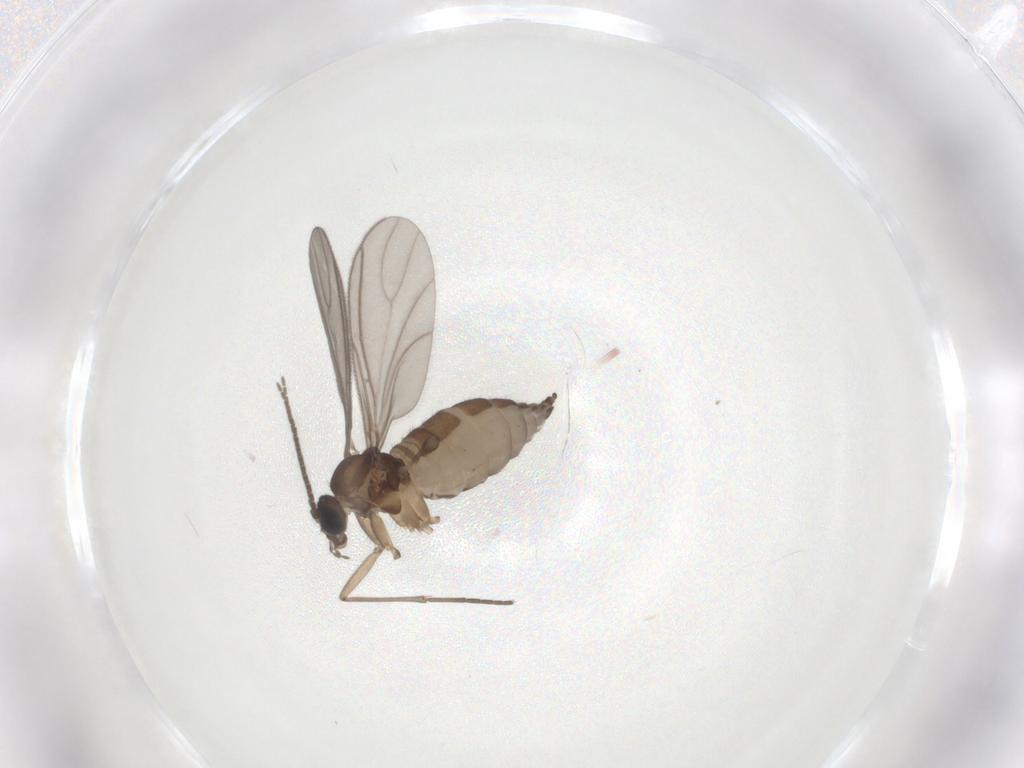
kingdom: Animalia
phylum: Arthropoda
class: Insecta
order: Diptera
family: Sciaridae
